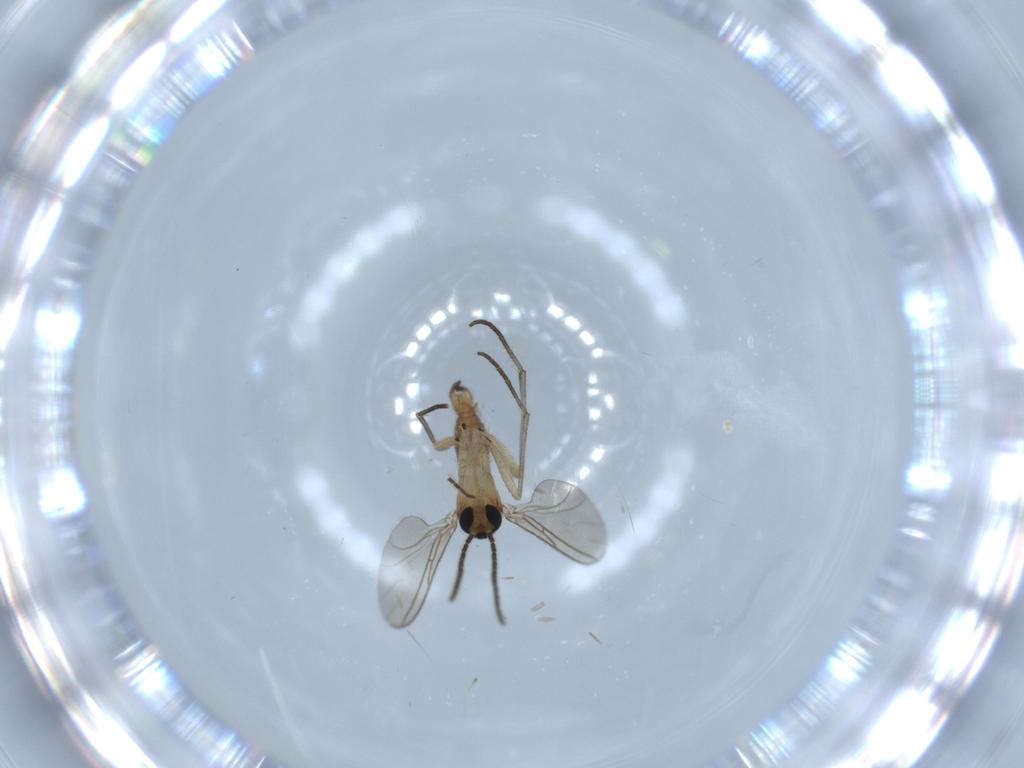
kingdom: Animalia
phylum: Arthropoda
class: Insecta
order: Diptera
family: Sciaridae
